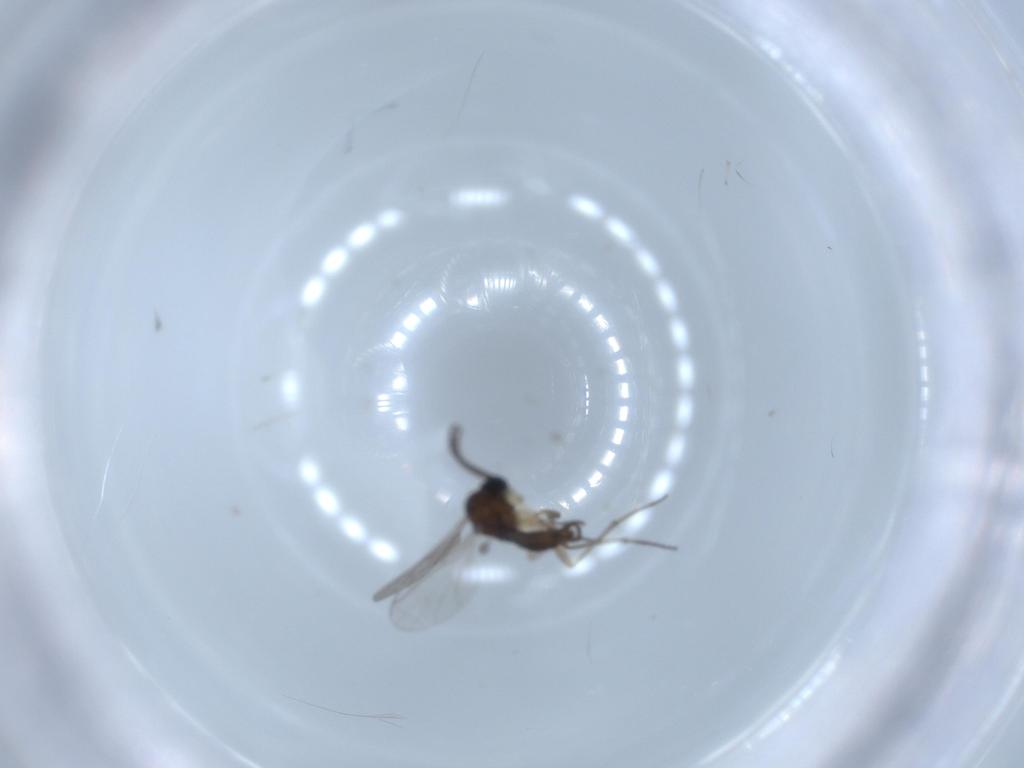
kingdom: Animalia
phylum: Arthropoda
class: Insecta
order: Diptera
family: Sciaridae
